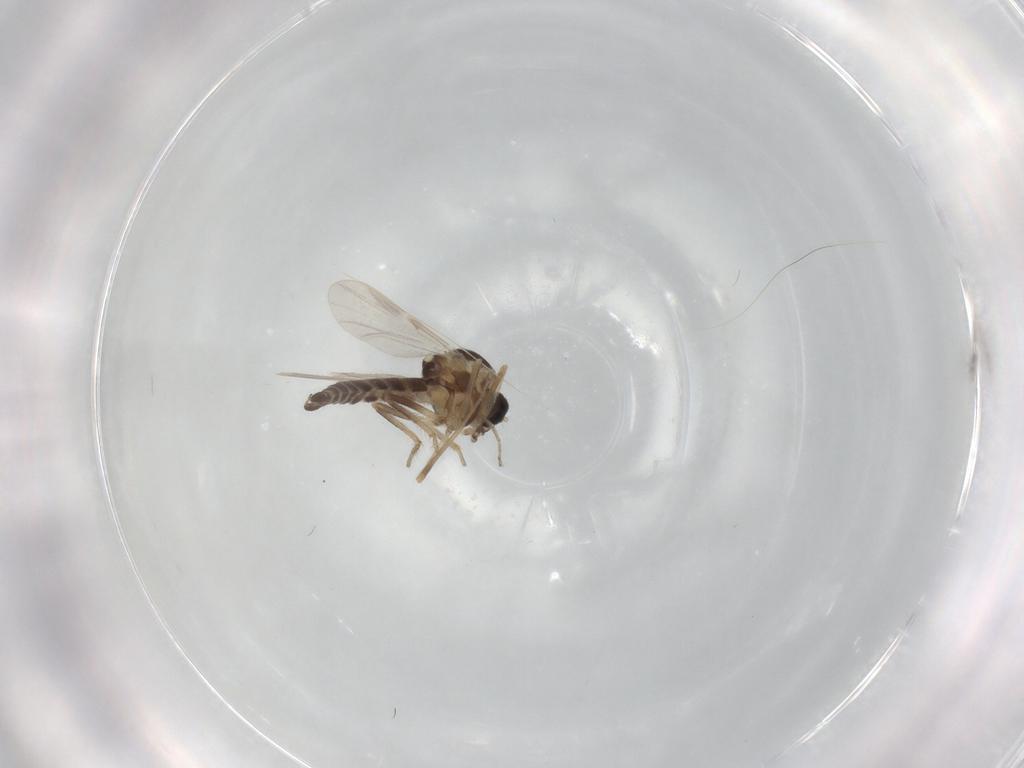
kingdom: Animalia
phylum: Arthropoda
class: Insecta
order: Diptera
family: Ceratopogonidae
